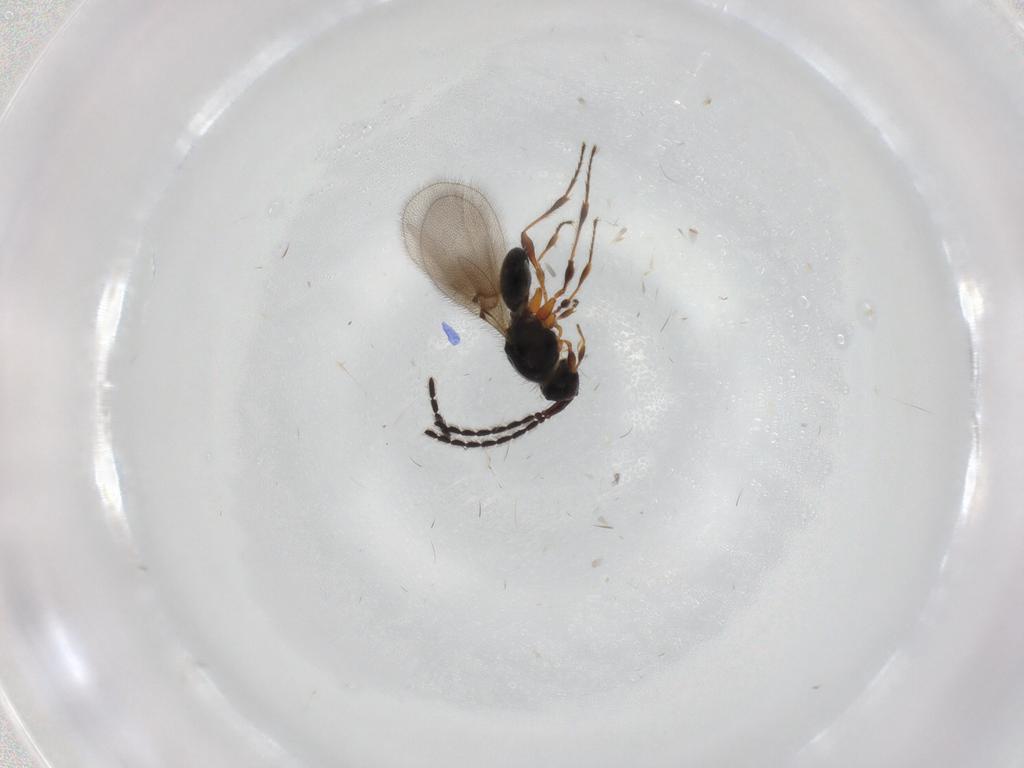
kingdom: Animalia
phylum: Arthropoda
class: Insecta
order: Hymenoptera
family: Diapriidae
